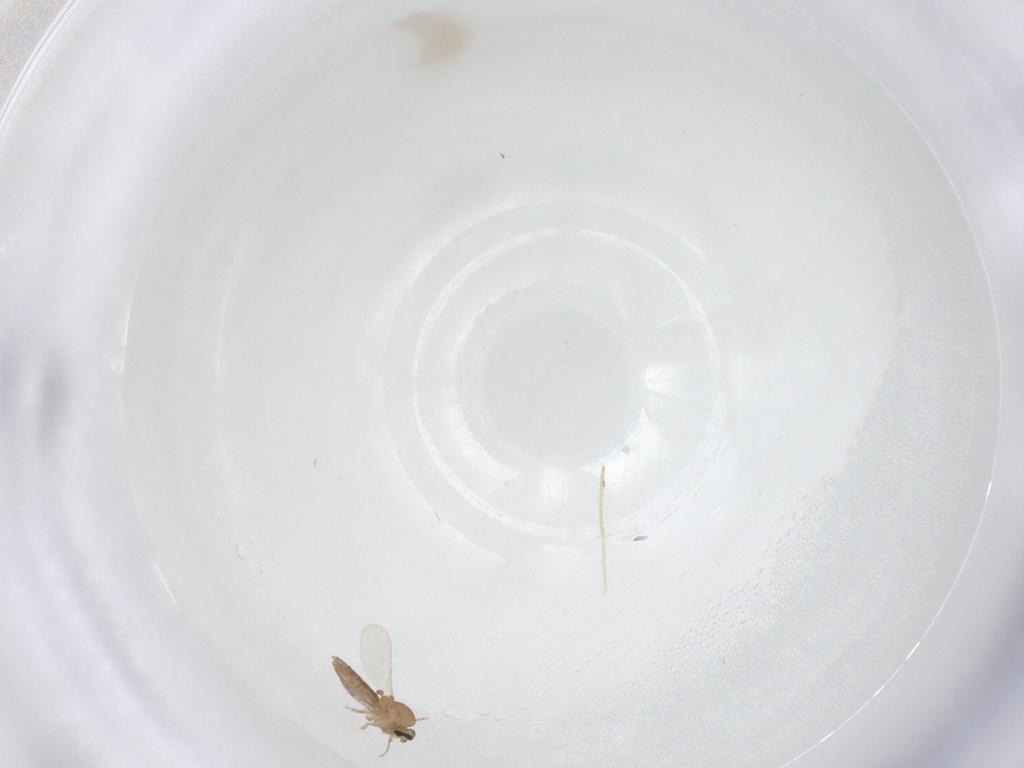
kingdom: Animalia
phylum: Arthropoda
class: Insecta
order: Diptera
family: Ceratopogonidae
